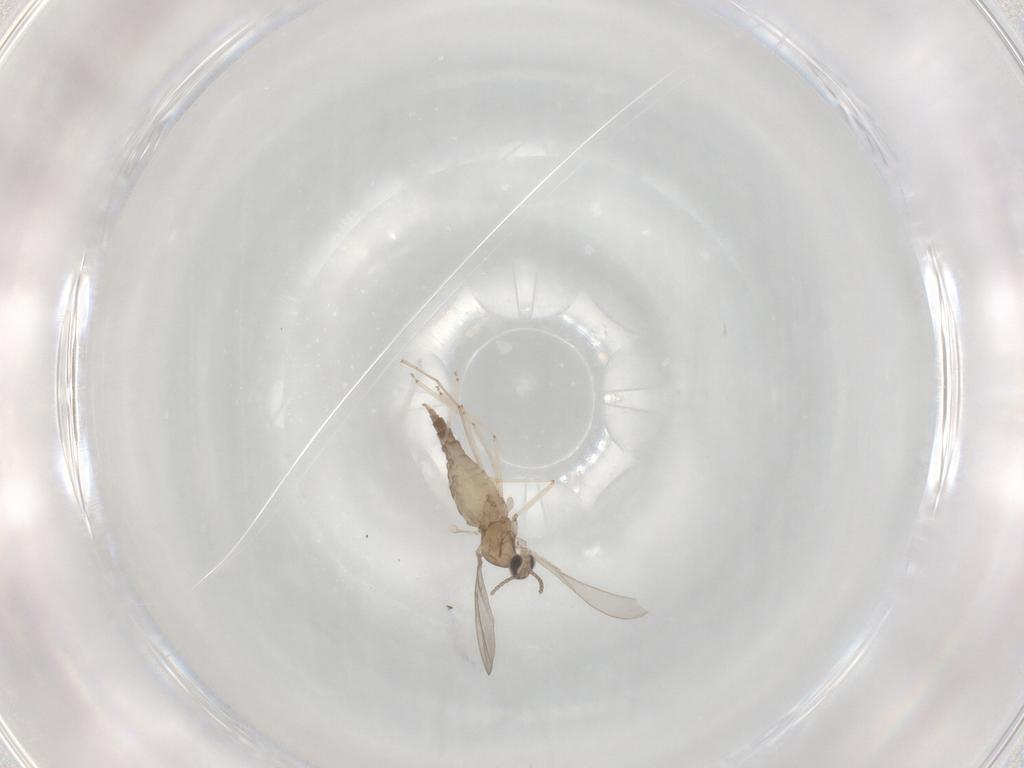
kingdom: Animalia
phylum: Arthropoda
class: Insecta
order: Diptera
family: Cecidomyiidae
